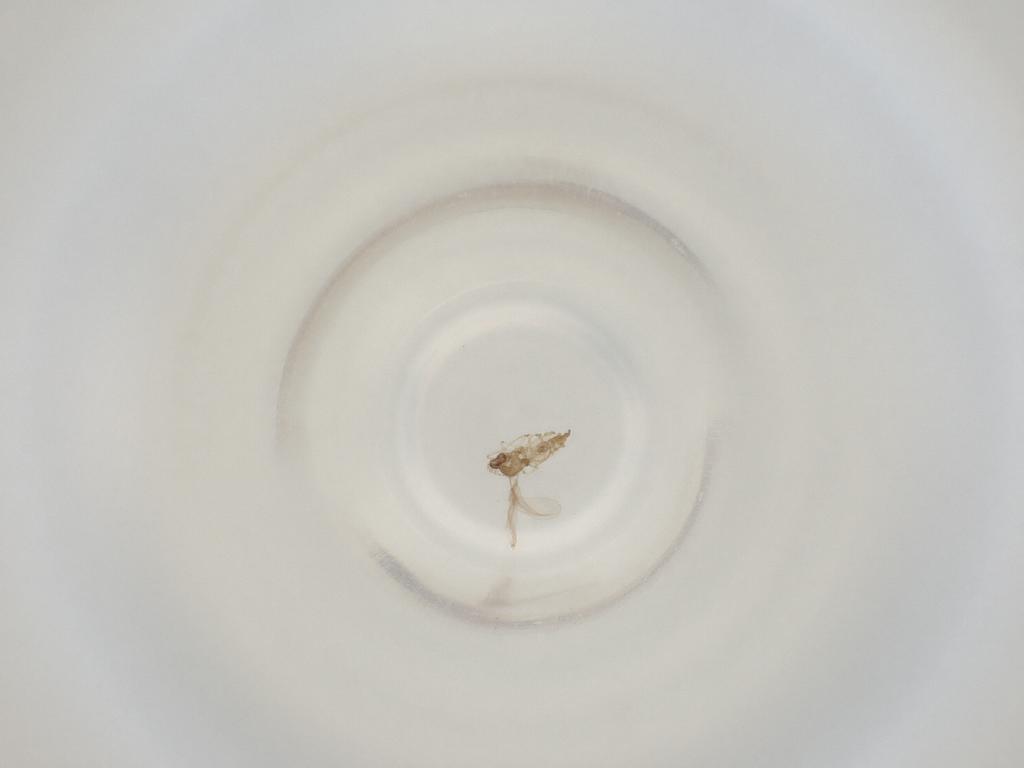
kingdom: Animalia
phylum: Arthropoda
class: Insecta
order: Diptera
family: Cecidomyiidae
